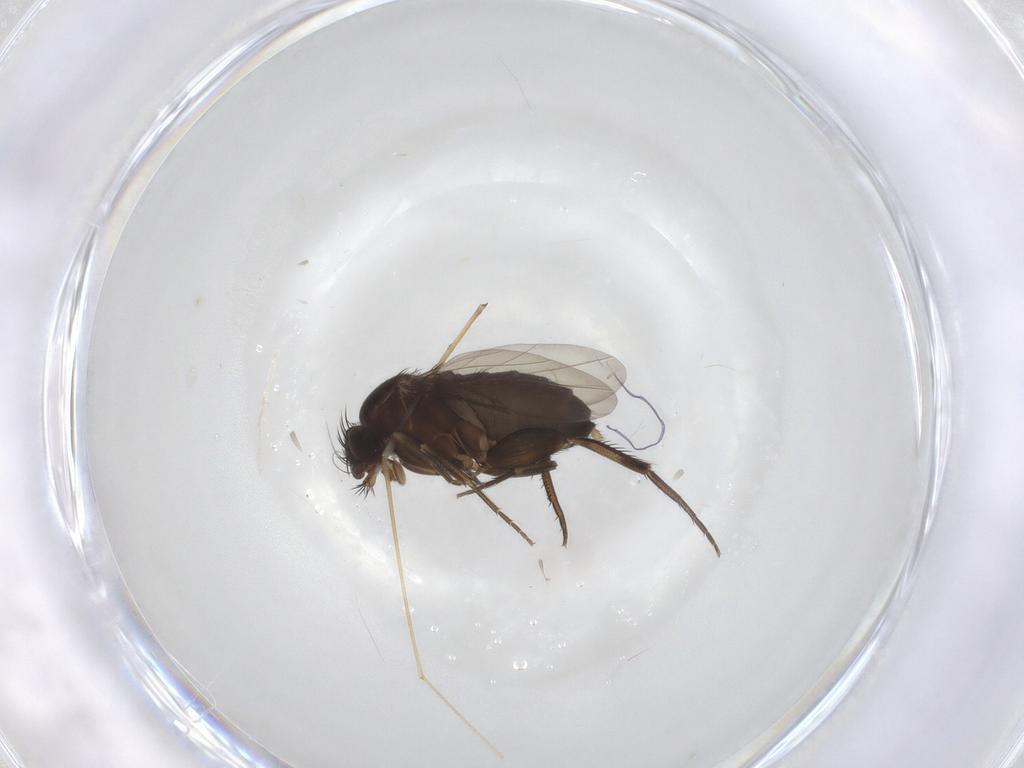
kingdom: Animalia
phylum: Arthropoda
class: Insecta
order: Diptera
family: Phoridae
